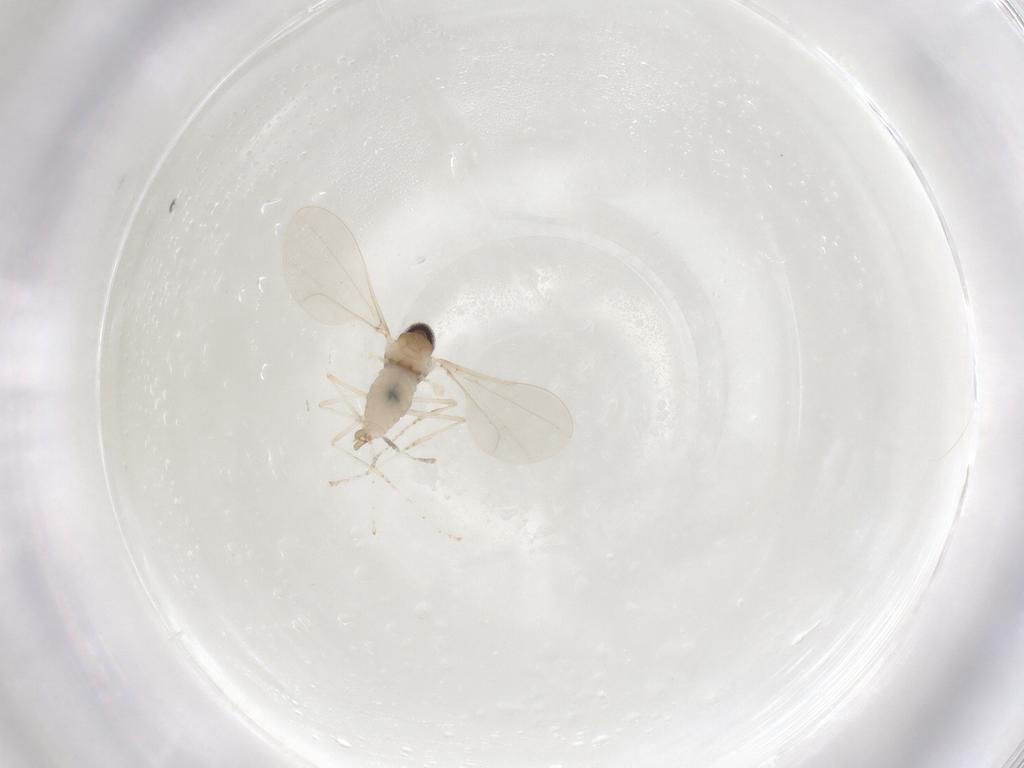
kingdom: Animalia
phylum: Arthropoda
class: Insecta
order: Diptera
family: Cecidomyiidae
